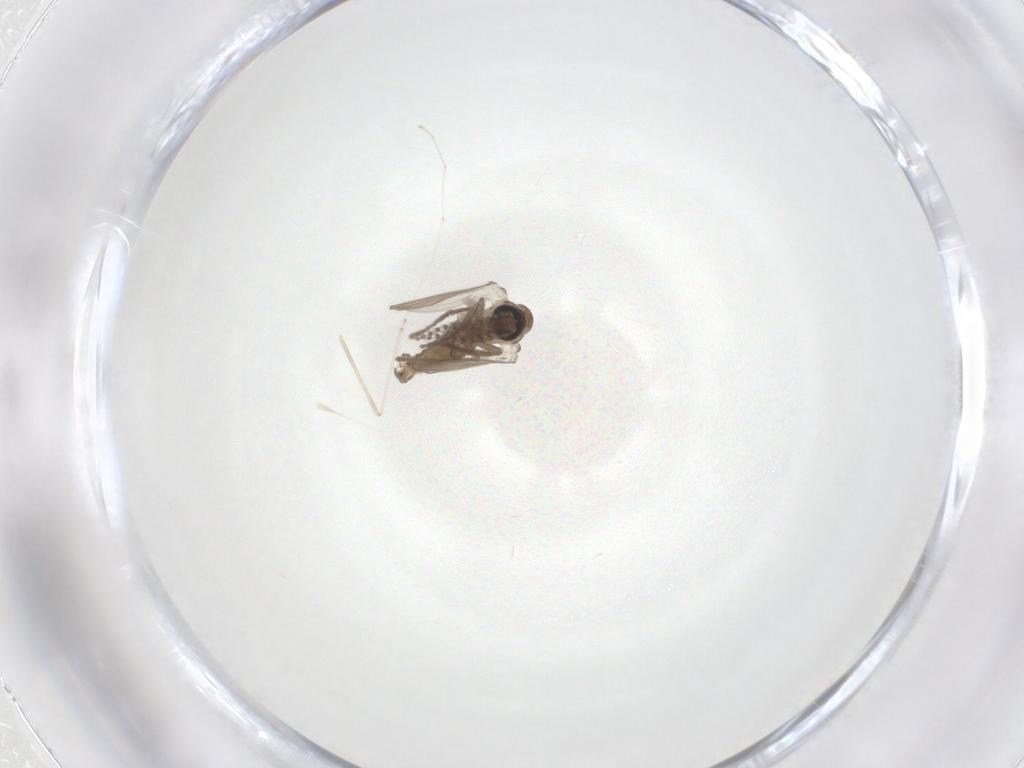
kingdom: Animalia
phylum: Arthropoda
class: Insecta
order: Diptera
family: Psychodidae
